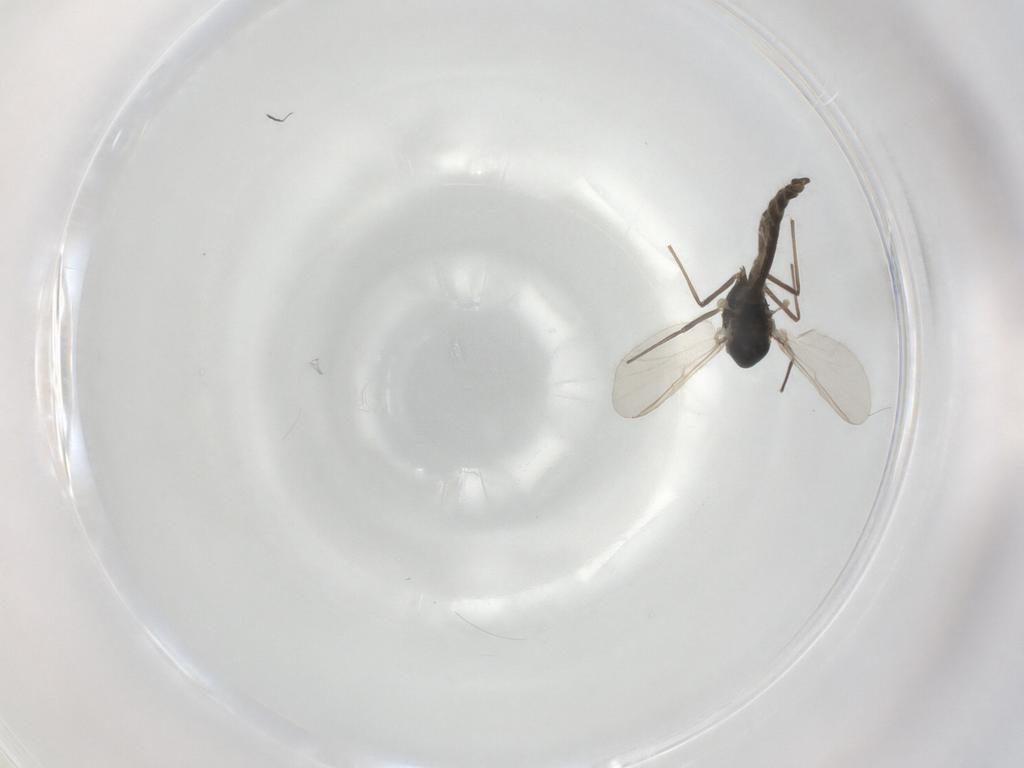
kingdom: Animalia
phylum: Arthropoda
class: Insecta
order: Diptera
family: Chironomidae
